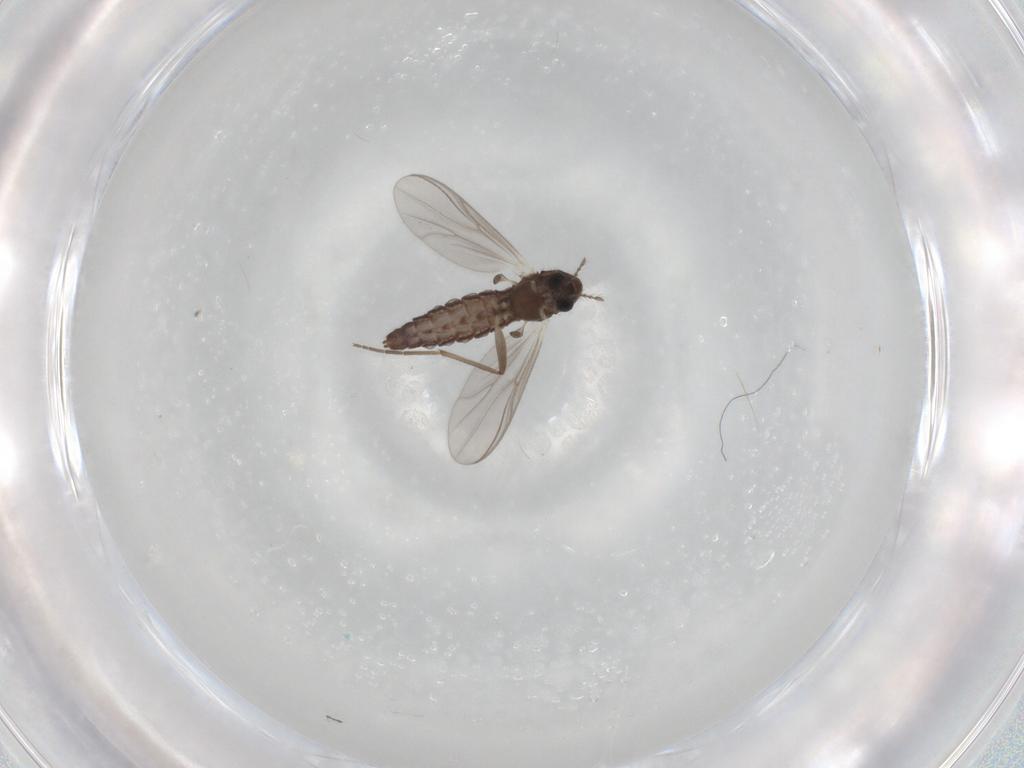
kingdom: Animalia
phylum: Arthropoda
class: Insecta
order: Diptera
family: Chironomidae
